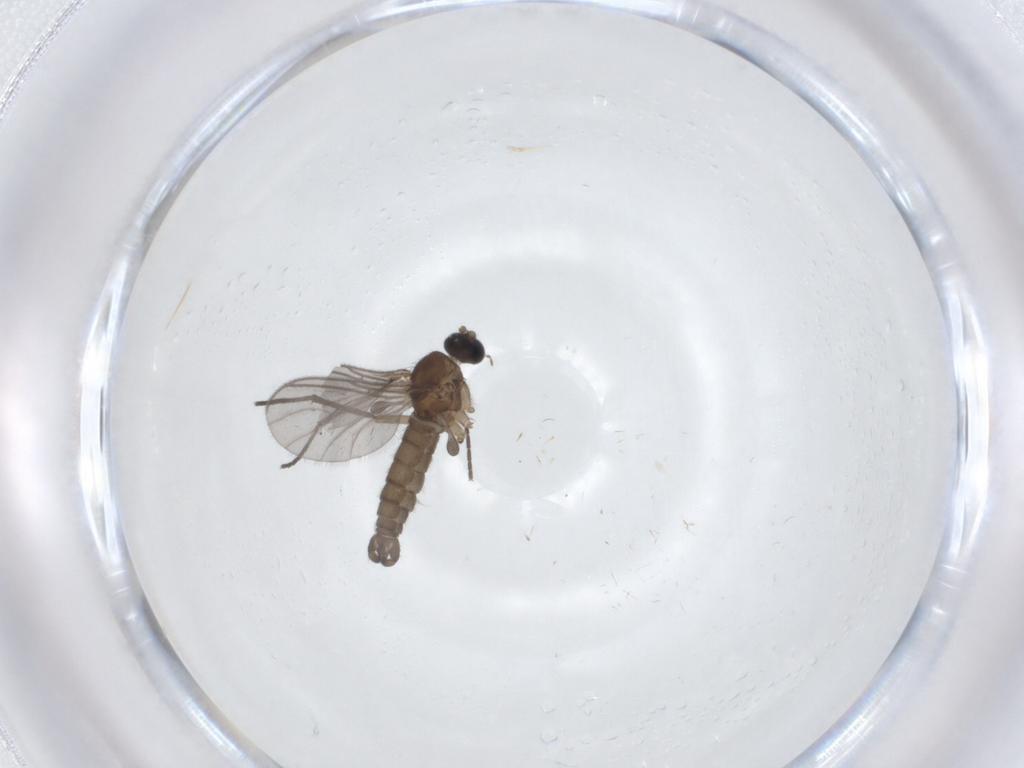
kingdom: Animalia
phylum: Arthropoda
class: Insecta
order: Diptera
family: Sciaridae
